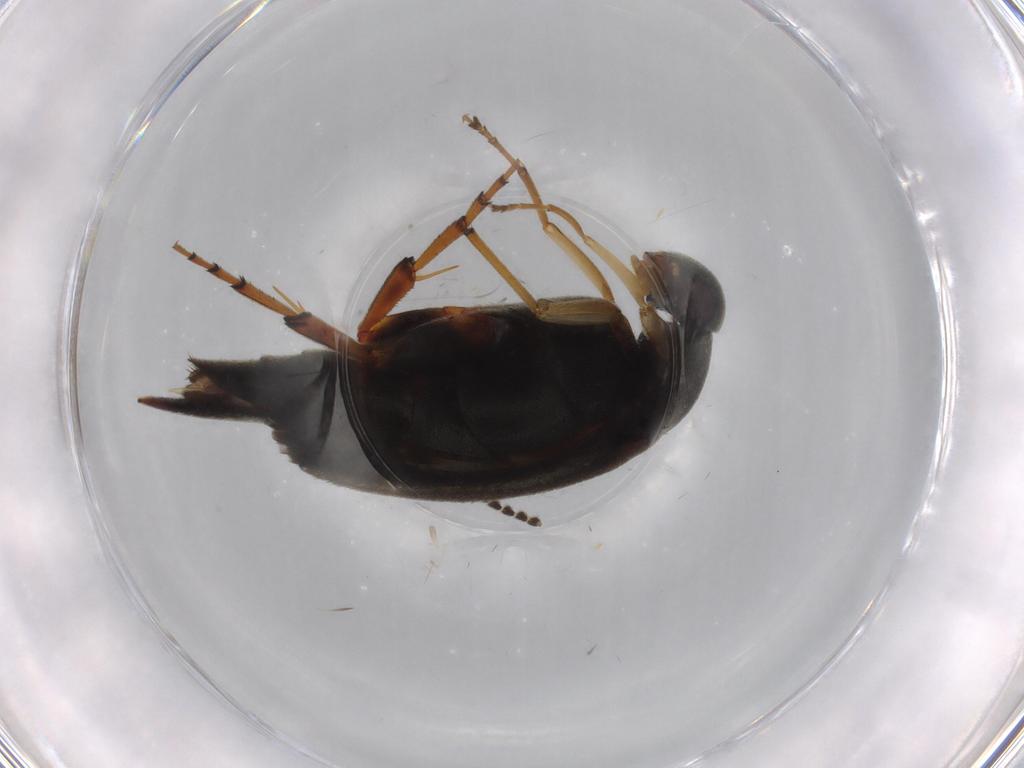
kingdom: Animalia
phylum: Arthropoda
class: Insecta
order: Coleoptera
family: Mordellidae
